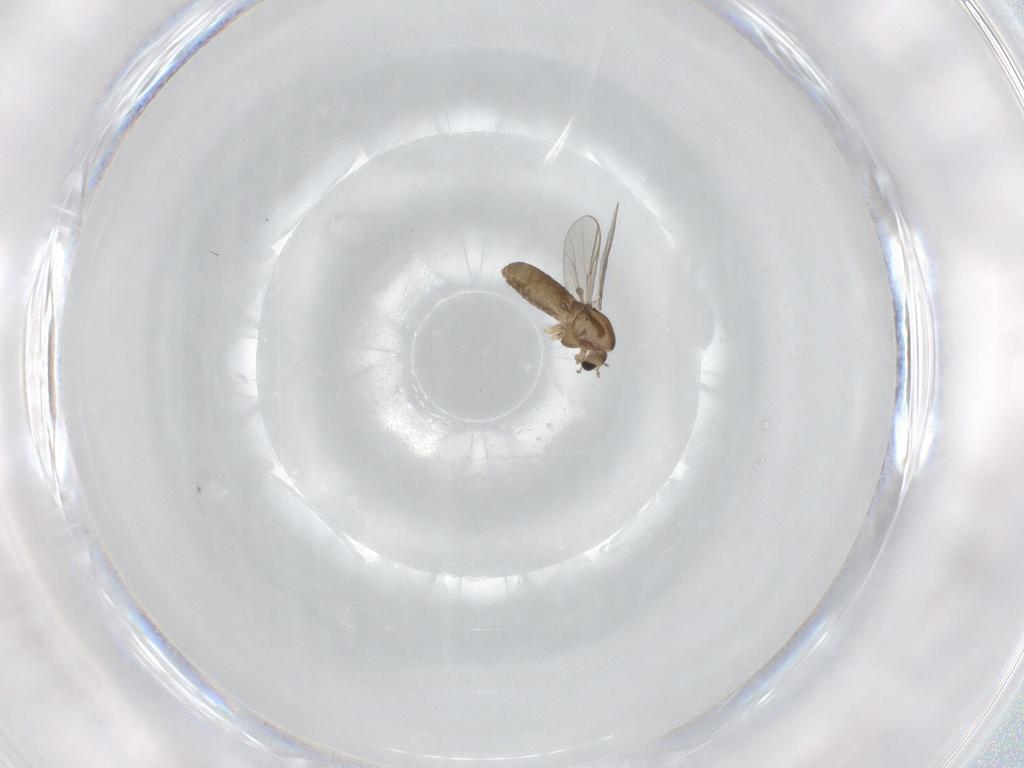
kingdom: Animalia
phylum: Arthropoda
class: Insecta
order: Diptera
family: Chironomidae
